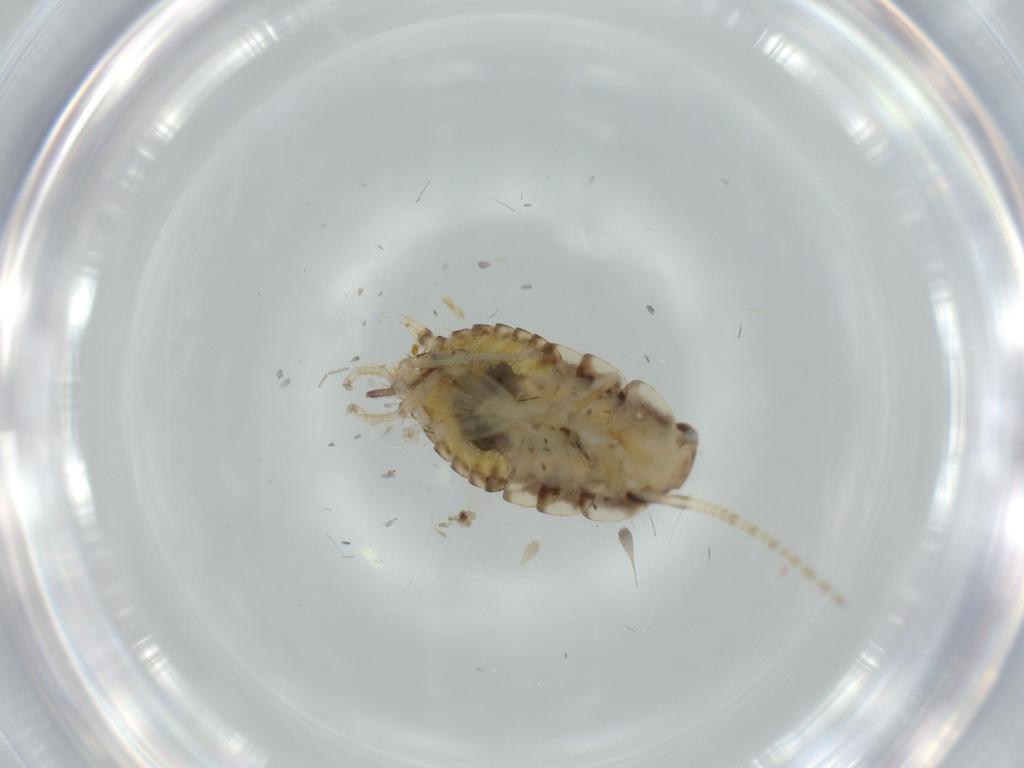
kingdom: Animalia
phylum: Arthropoda
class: Insecta
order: Blattodea
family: Ectobiidae
